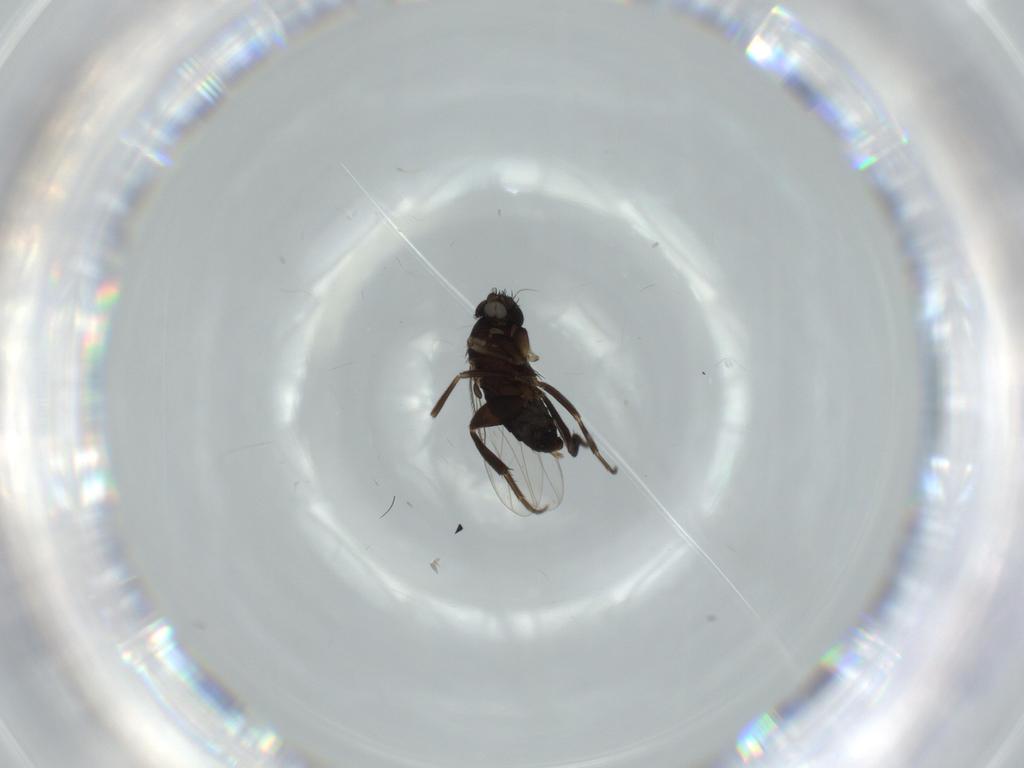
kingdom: Animalia
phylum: Arthropoda
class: Insecta
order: Diptera
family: Phoridae
